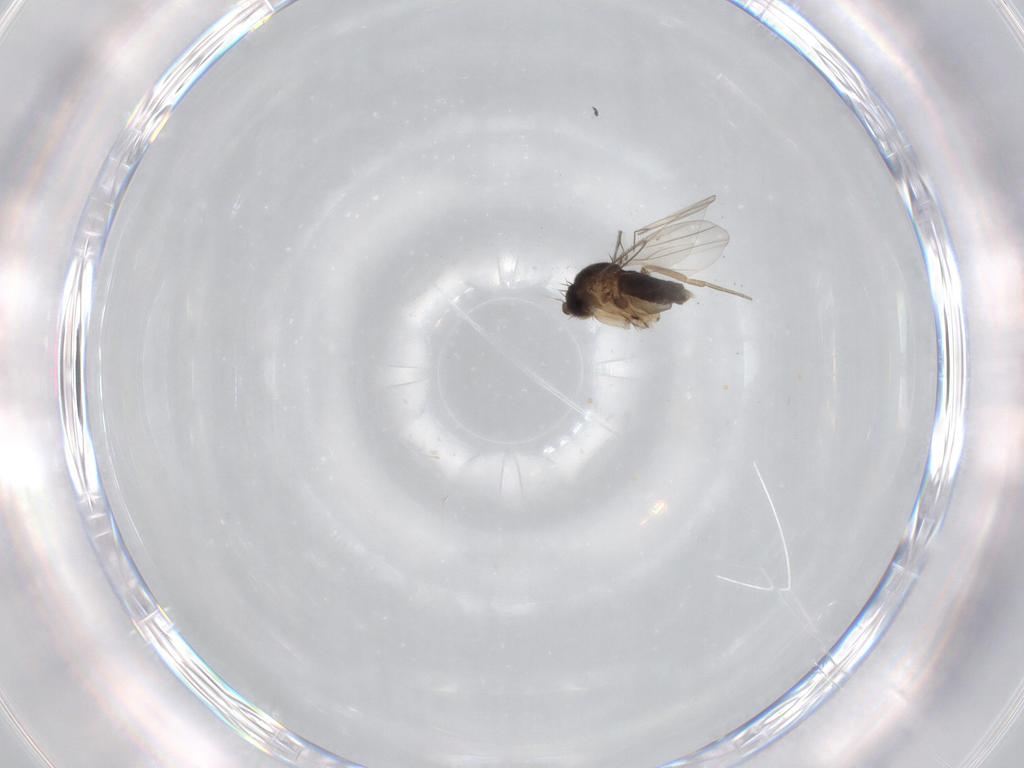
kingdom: Animalia
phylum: Arthropoda
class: Insecta
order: Diptera
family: Phoridae
